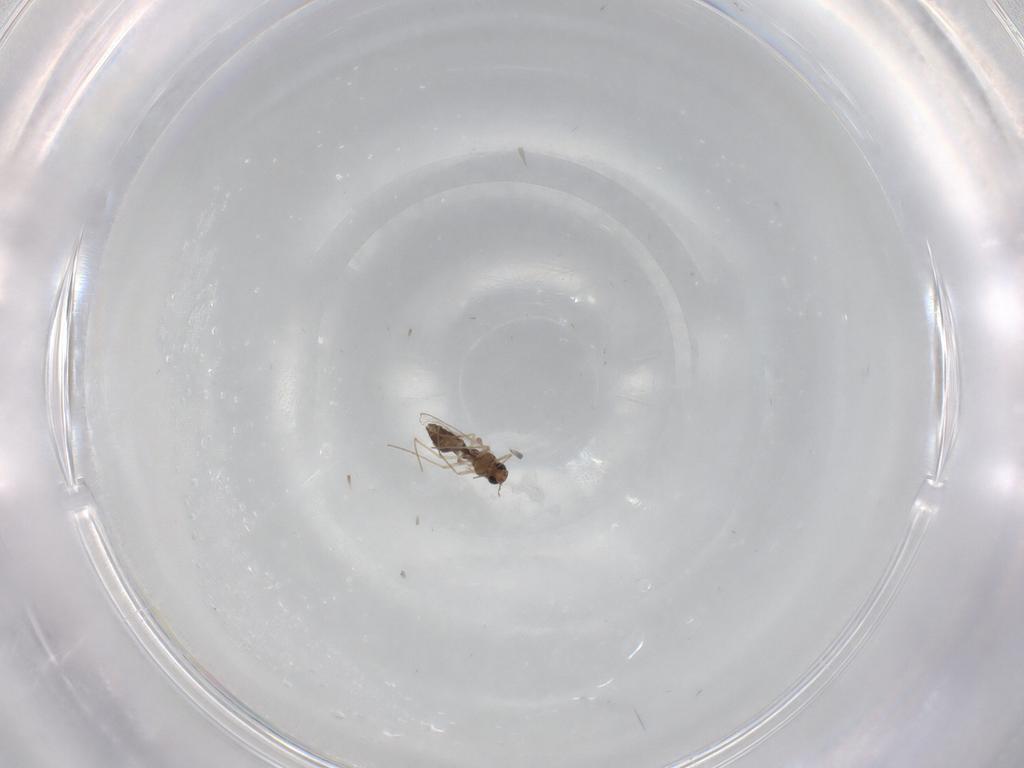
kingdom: Animalia
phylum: Arthropoda
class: Insecta
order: Diptera
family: Chironomidae
